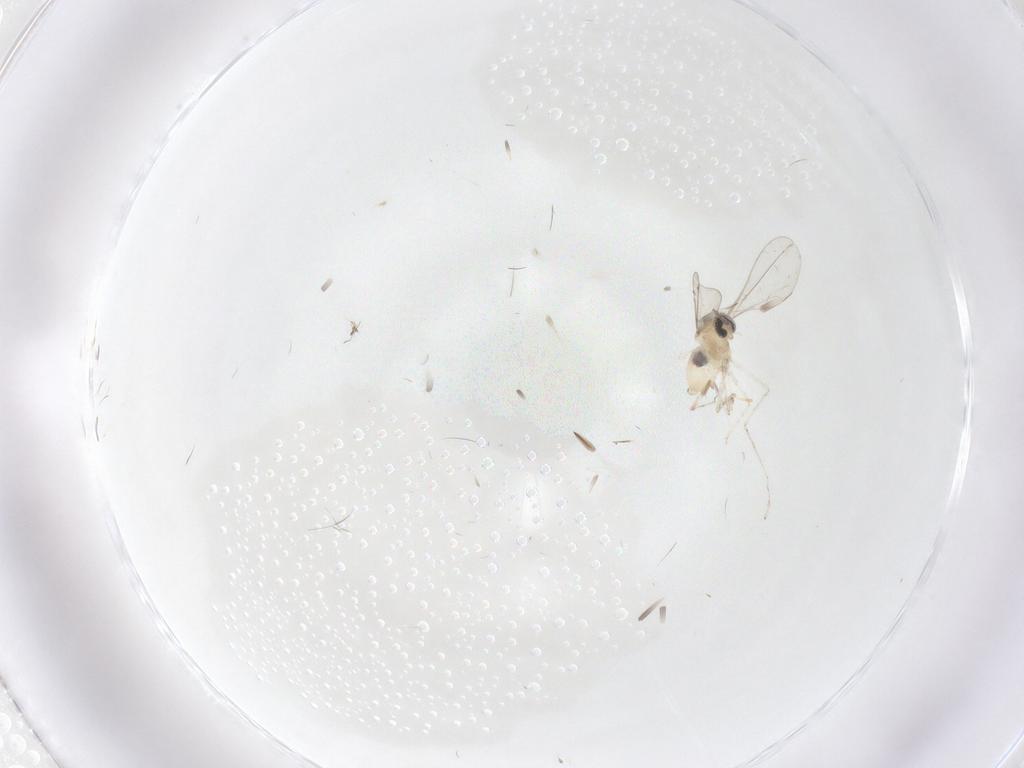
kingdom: Animalia
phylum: Arthropoda
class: Insecta
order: Diptera
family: Cecidomyiidae
